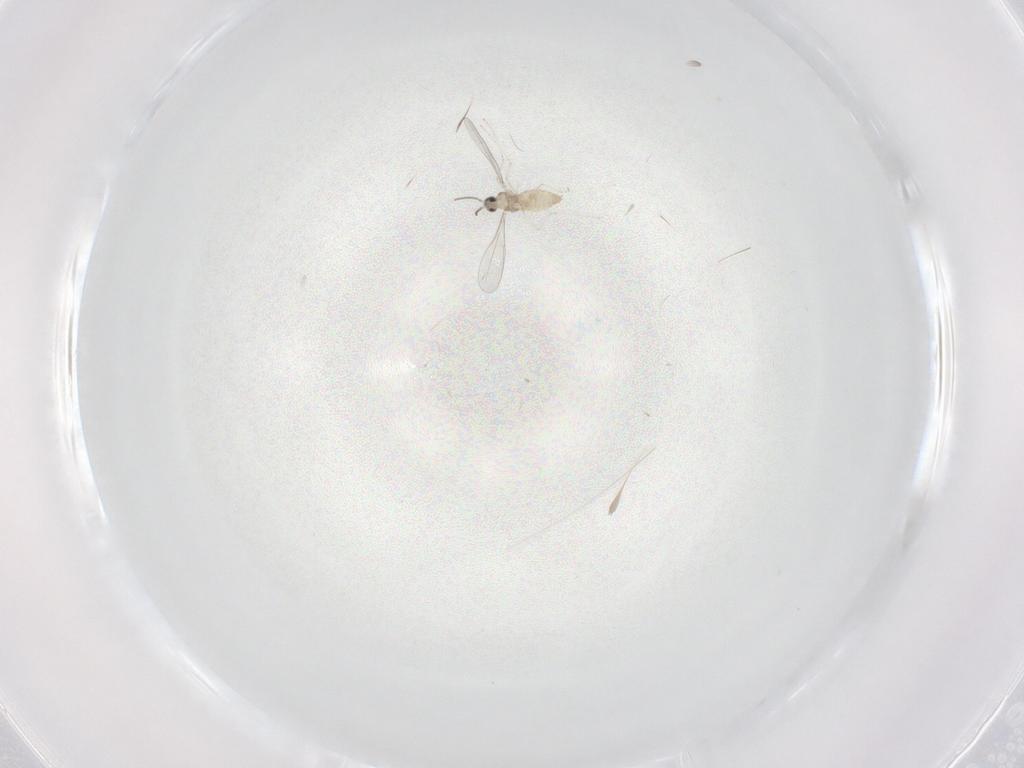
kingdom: Animalia
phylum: Arthropoda
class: Insecta
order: Diptera
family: Cecidomyiidae
